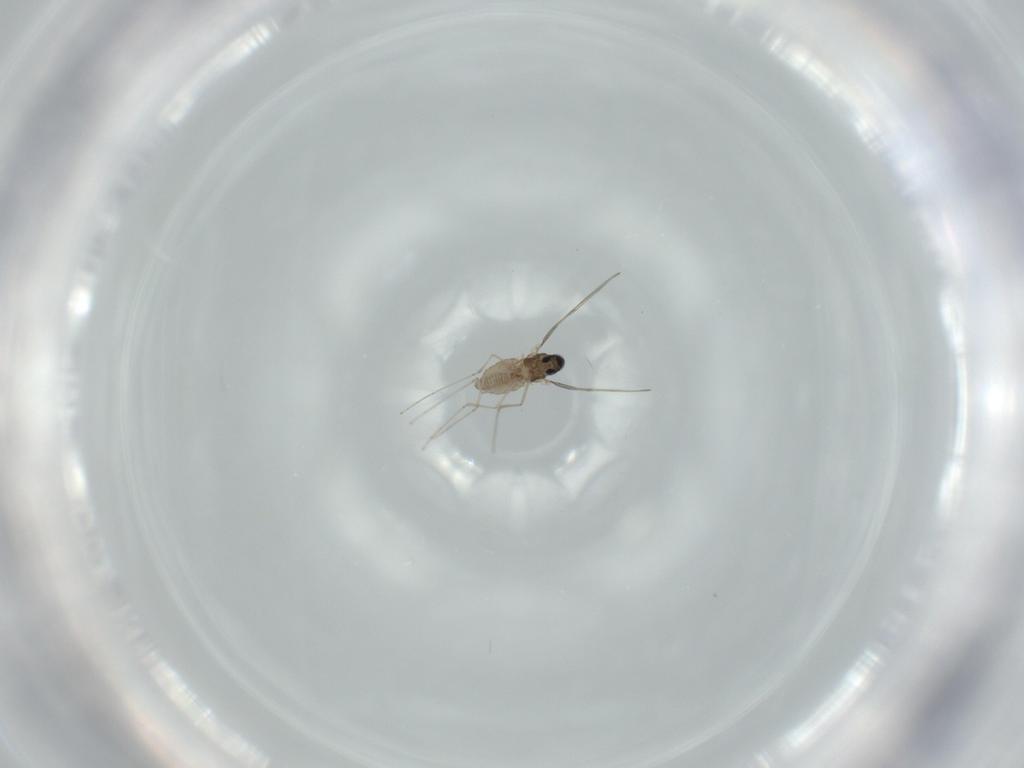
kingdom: Animalia
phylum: Arthropoda
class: Insecta
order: Diptera
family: Cecidomyiidae
